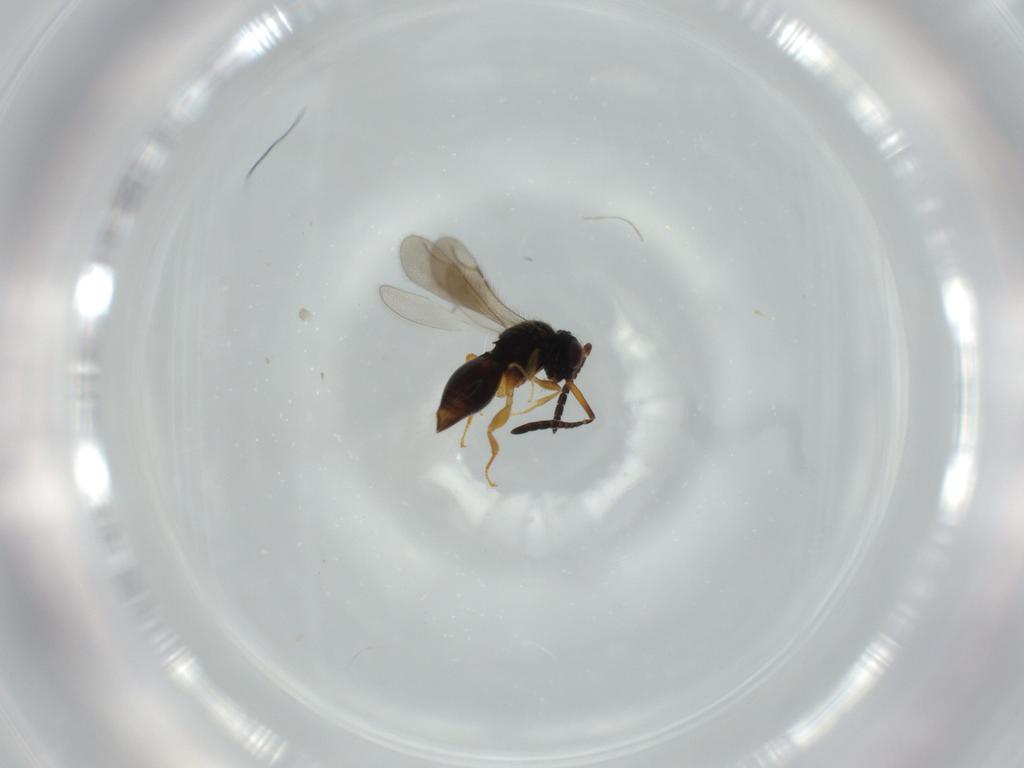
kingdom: Animalia
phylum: Arthropoda
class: Insecta
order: Hymenoptera
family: Ceraphronidae
